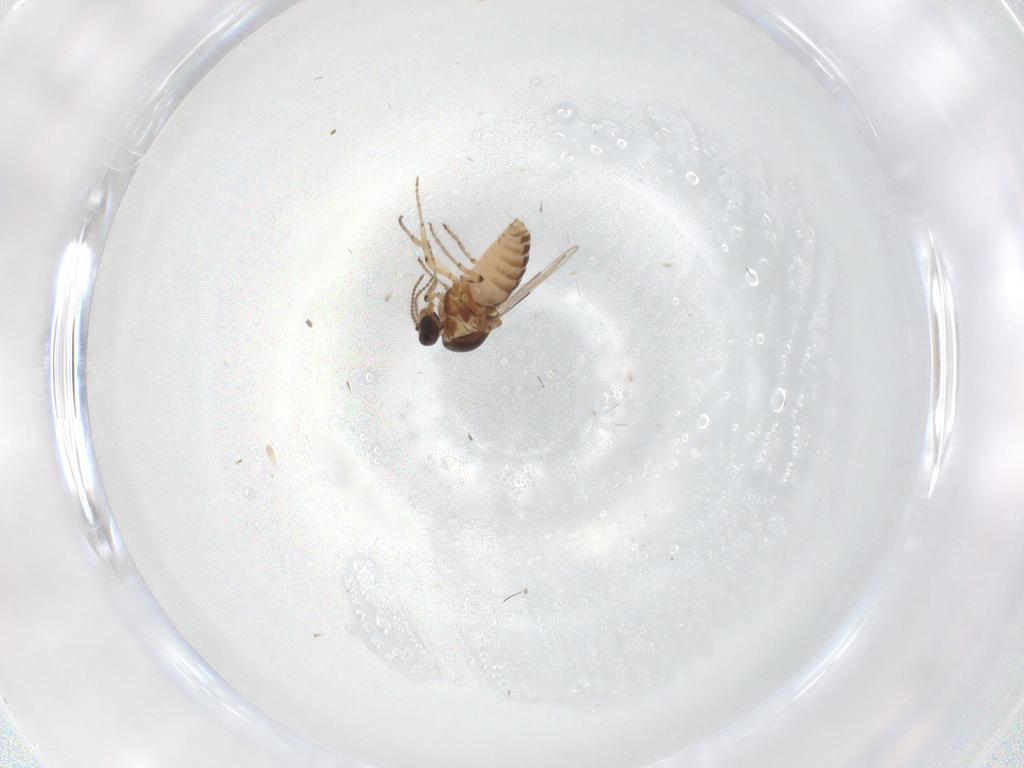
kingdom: Animalia
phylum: Arthropoda
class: Insecta
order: Diptera
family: Ceratopogonidae
